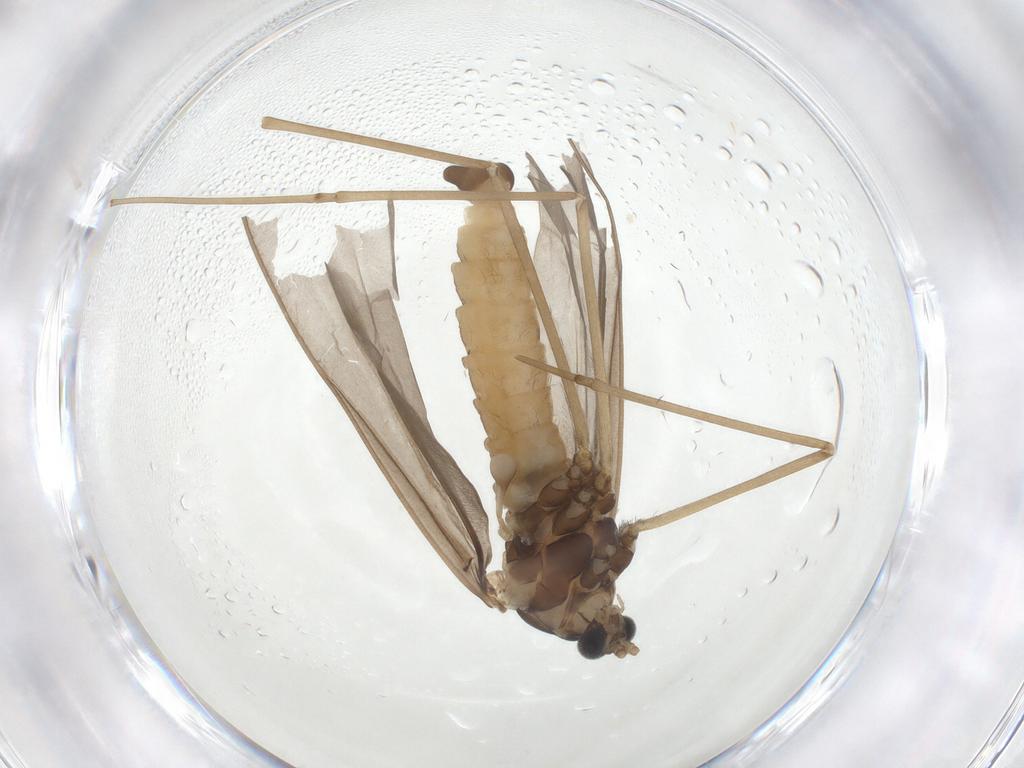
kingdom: Animalia
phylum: Arthropoda
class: Insecta
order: Diptera
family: Cecidomyiidae
